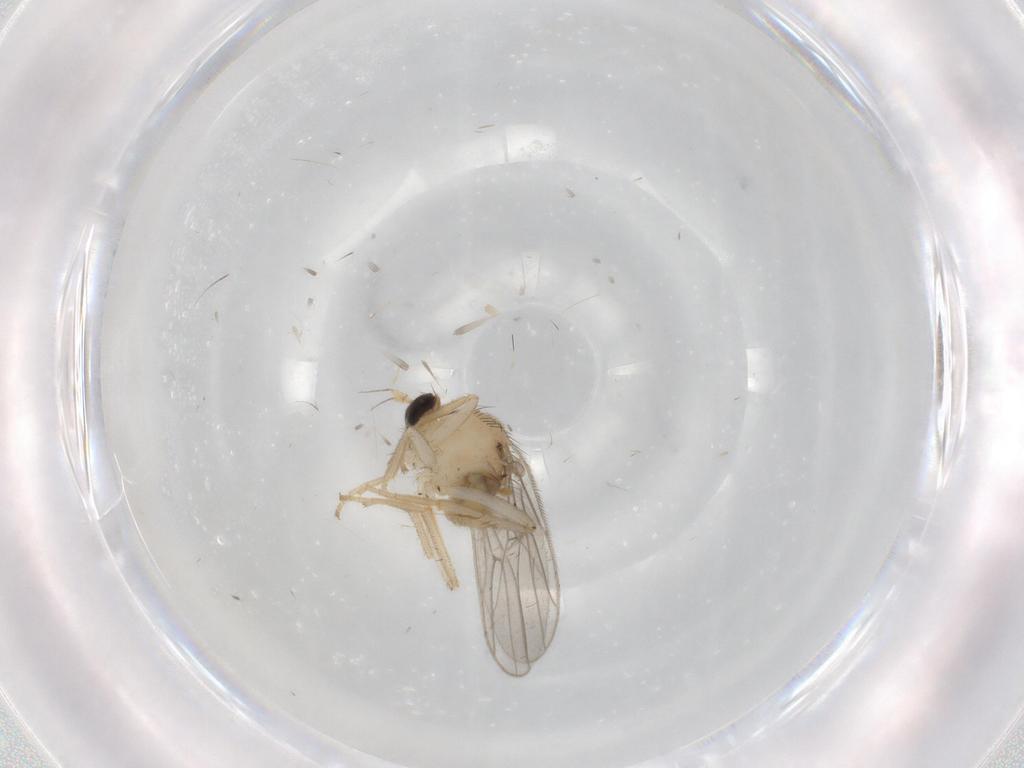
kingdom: Animalia
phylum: Arthropoda
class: Insecta
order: Diptera
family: Hybotidae
